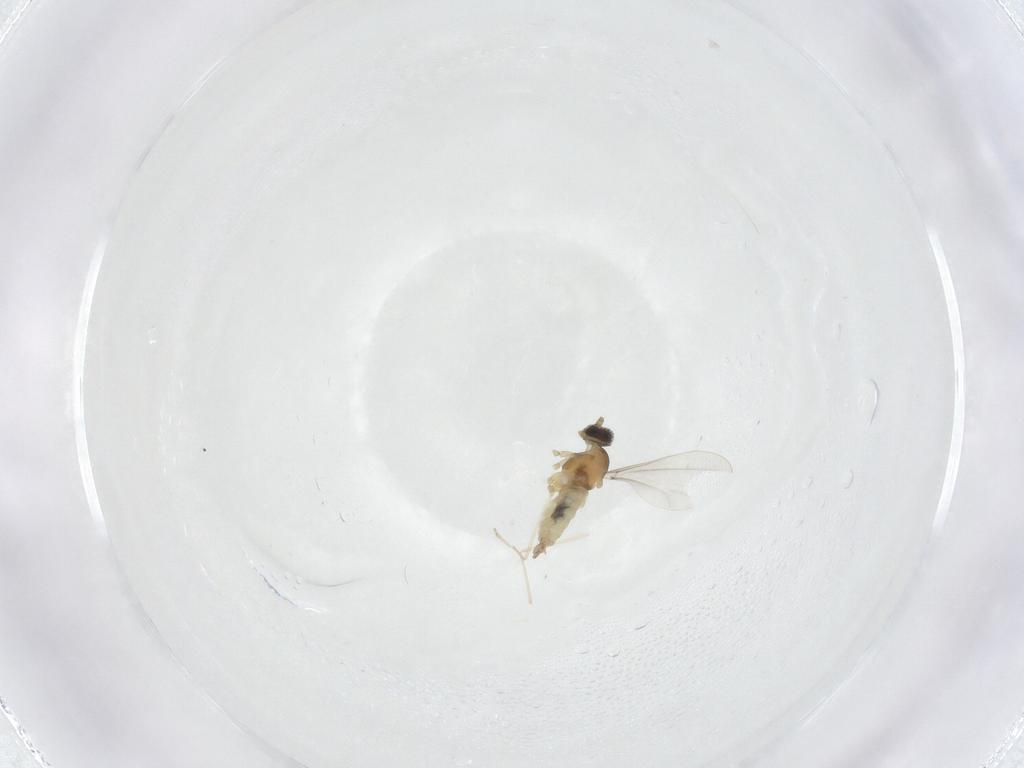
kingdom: Animalia
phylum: Arthropoda
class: Insecta
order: Diptera
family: Cecidomyiidae
